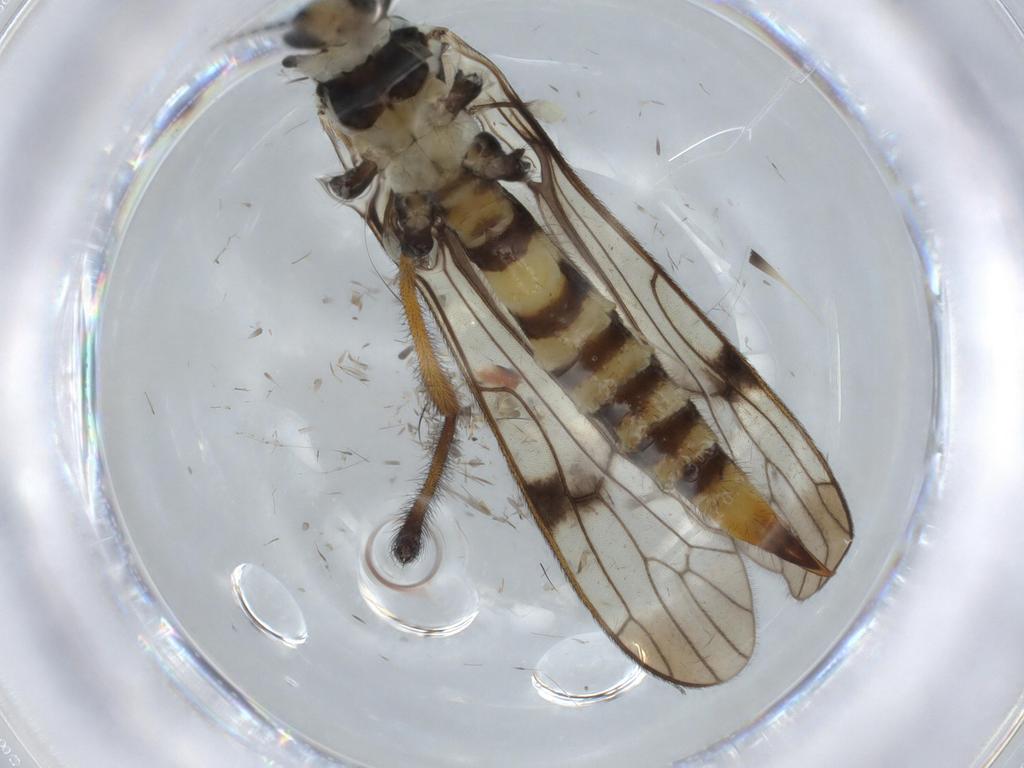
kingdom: Animalia
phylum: Arthropoda
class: Insecta
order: Diptera
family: Limoniidae
